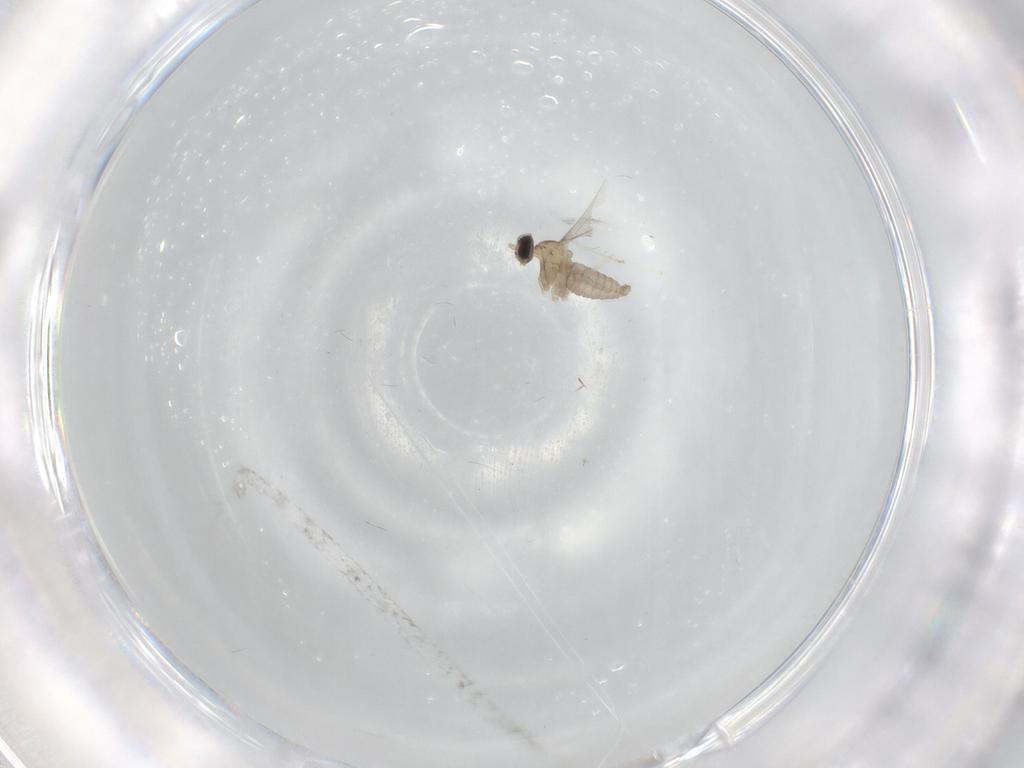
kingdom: Animalia
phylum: Arthropoda
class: Insecta
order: Diptera
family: Cecidomyiidae
